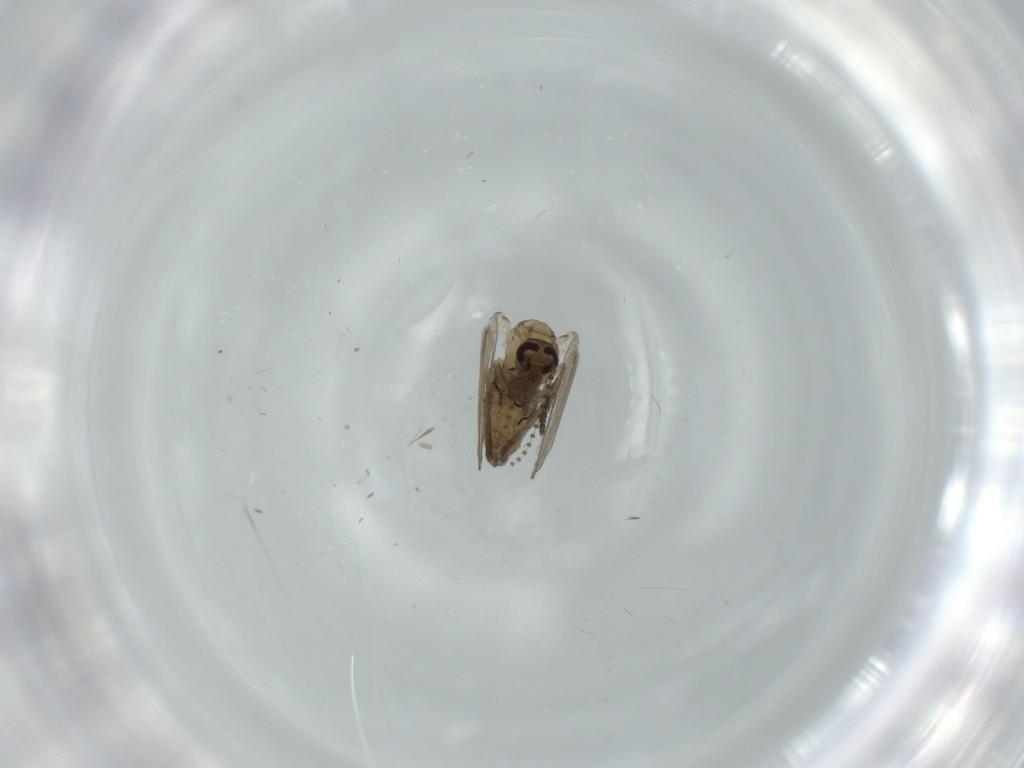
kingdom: Animalia
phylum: Arthropoda
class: Insecta
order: Diptera
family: Psychodidae
